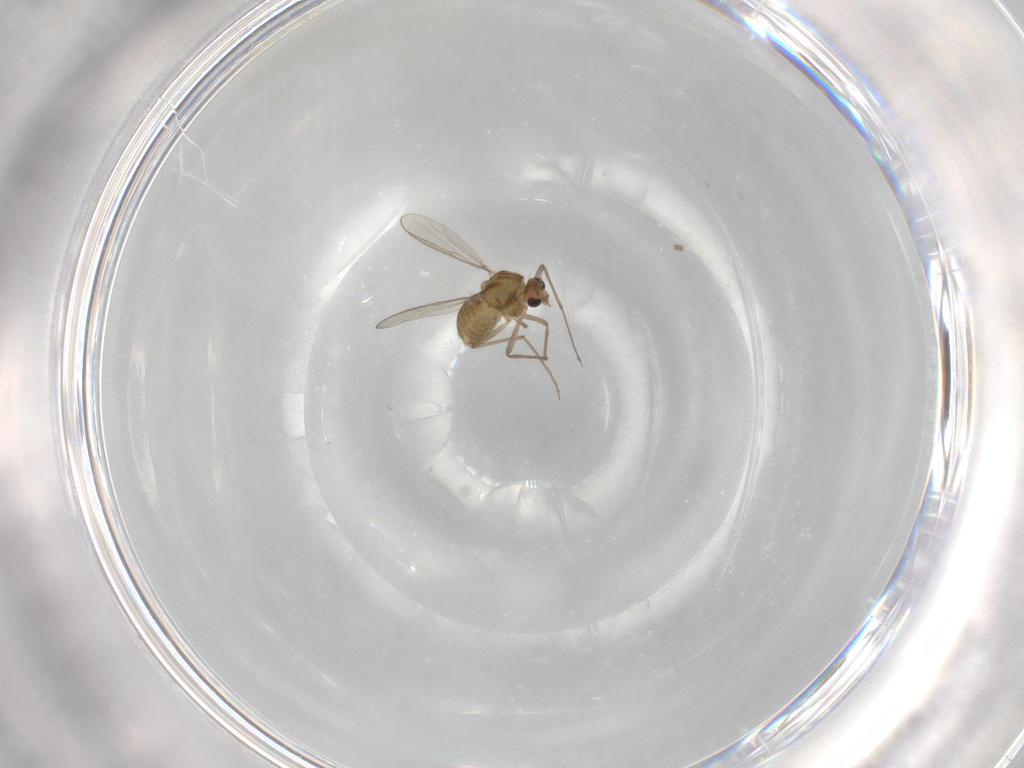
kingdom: Animalia
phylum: Arthropoda
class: Insecta
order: Diptera
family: Chironomidae
